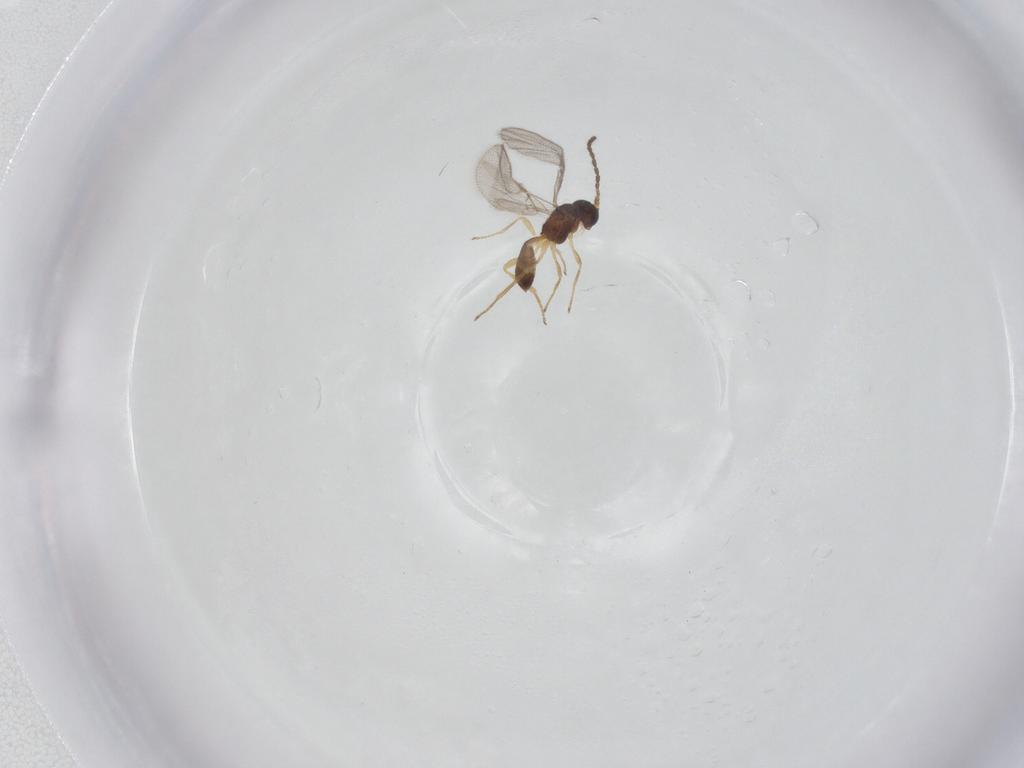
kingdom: Animalia
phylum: Arthropoda
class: Insecta
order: Hymenoptera
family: Braconidae
